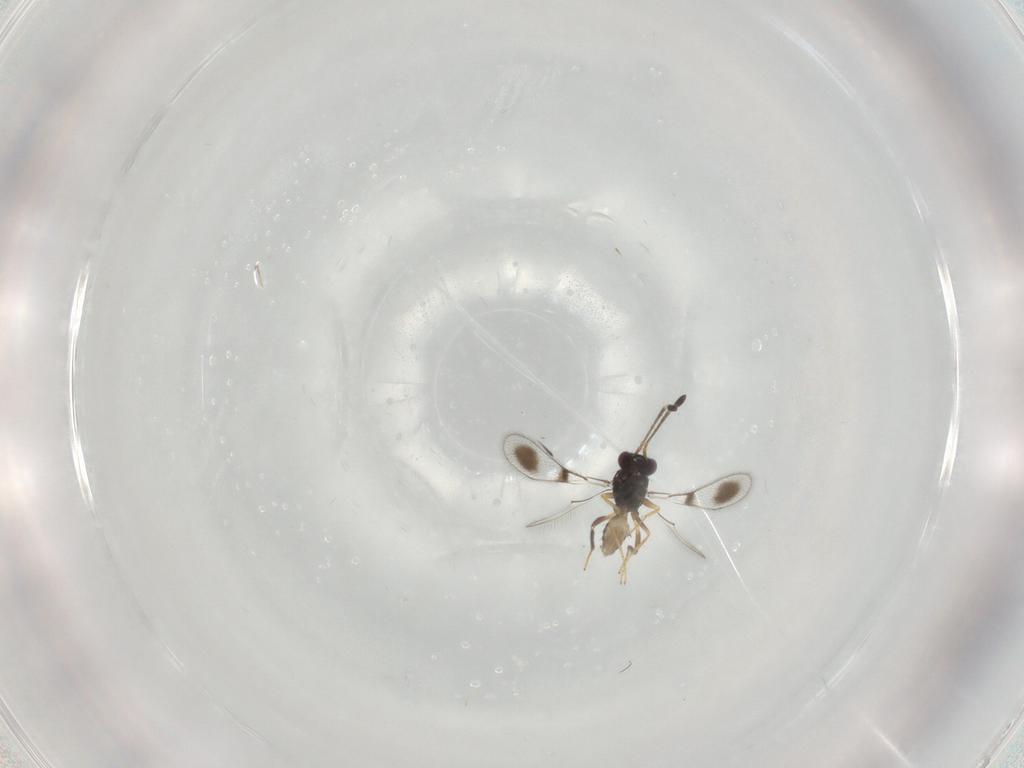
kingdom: Animalia
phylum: Arthropoda
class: Insecta
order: Hymenoptera
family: Mymaridae
